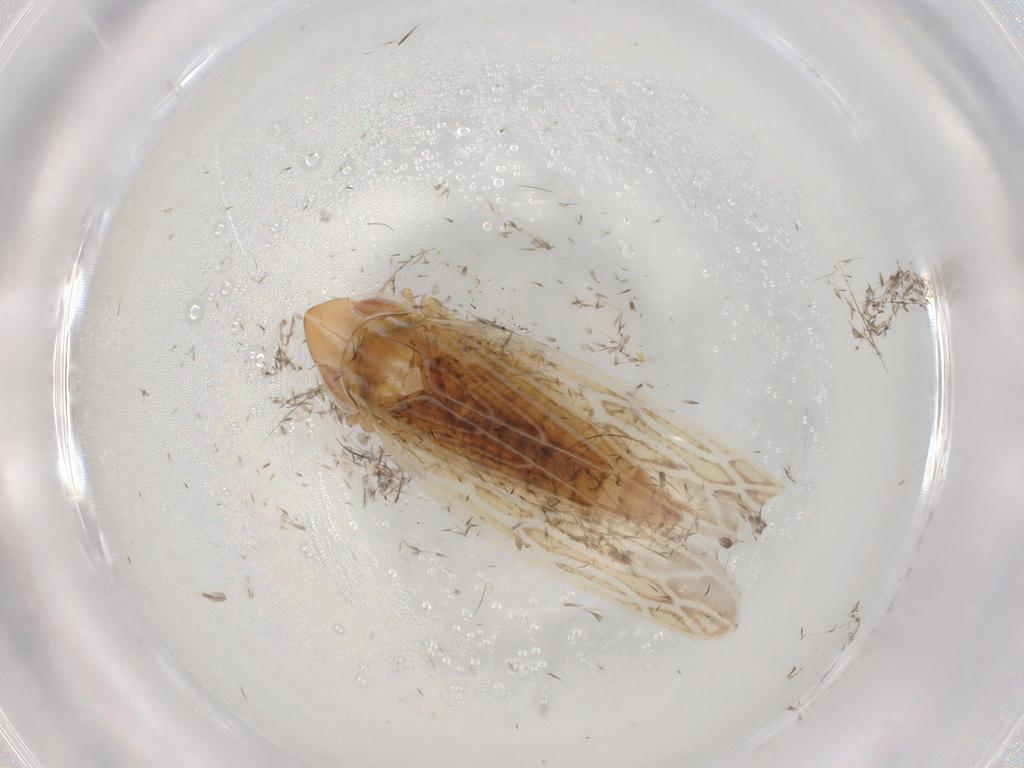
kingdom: Animalia
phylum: Arthropoda
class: Insecta
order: Hemiptera
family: Cicadellidae
